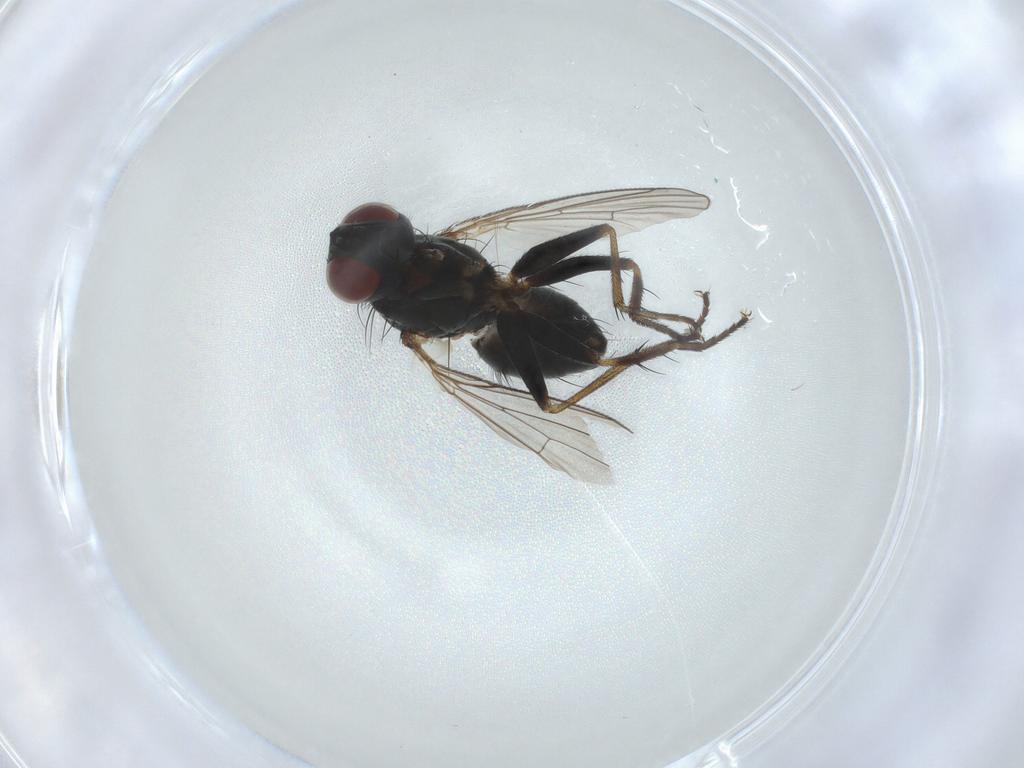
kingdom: Animalia
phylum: Arthropoda
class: Insecta
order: Diptera
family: Muscidae
